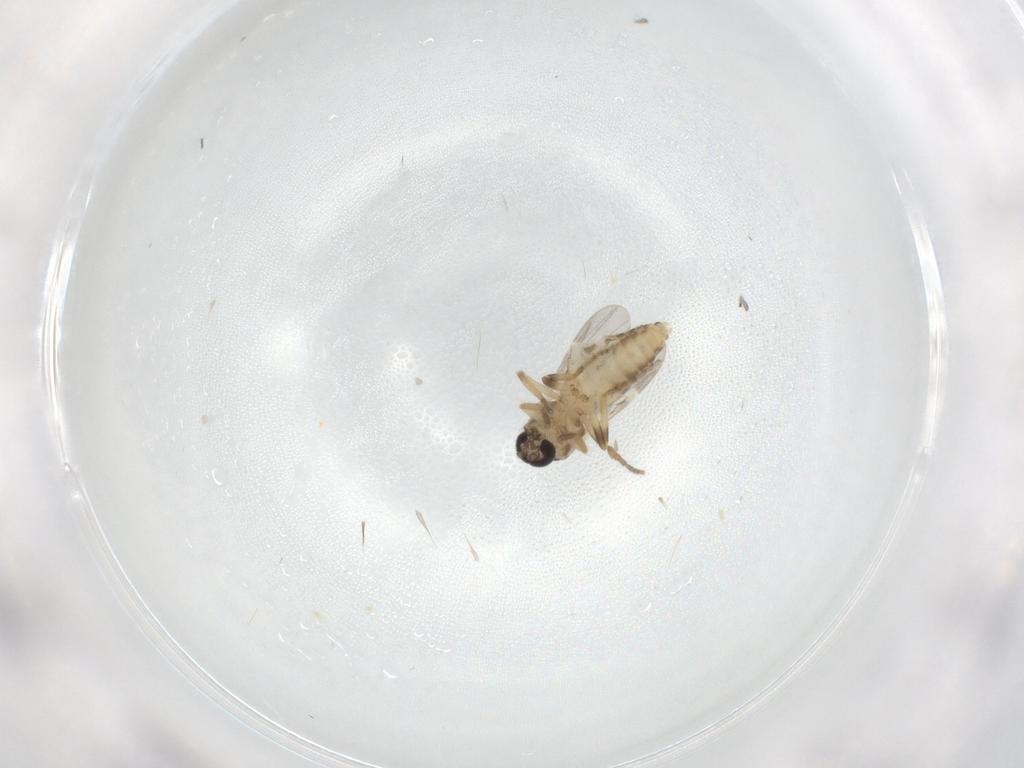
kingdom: Animalia
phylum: Arthropoda
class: Insecta
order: Diptera
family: Ceratopogonidae
